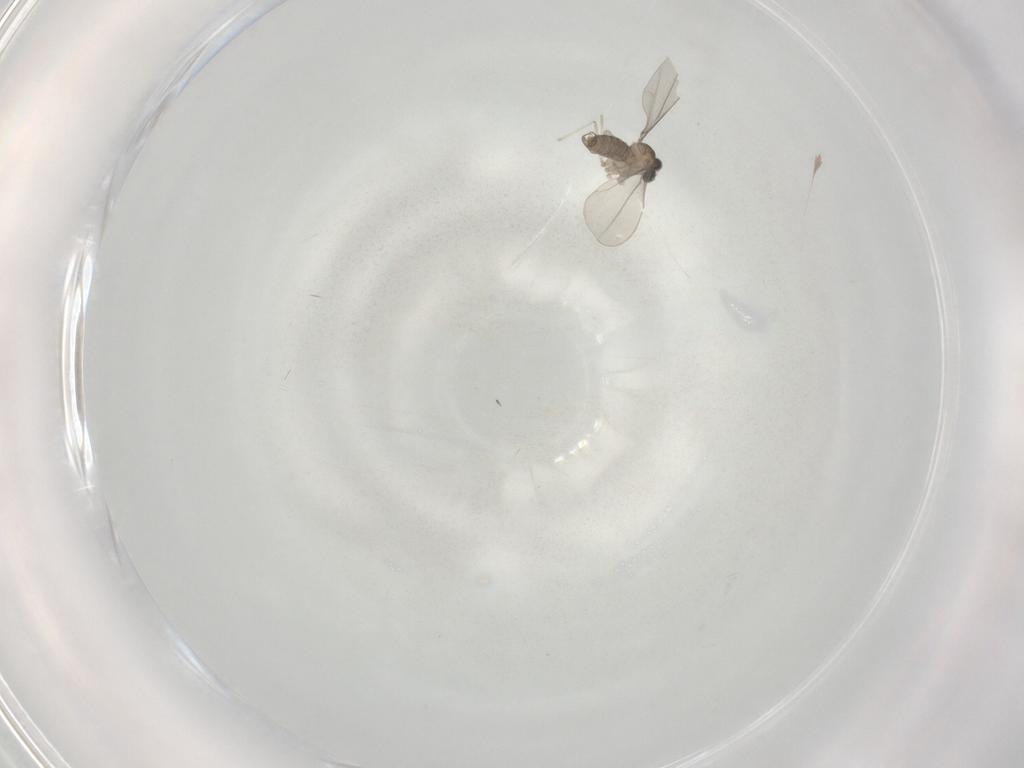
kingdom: Animalia
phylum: Arthropoda
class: Insecta
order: Diptera
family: Cecidomyiidae
